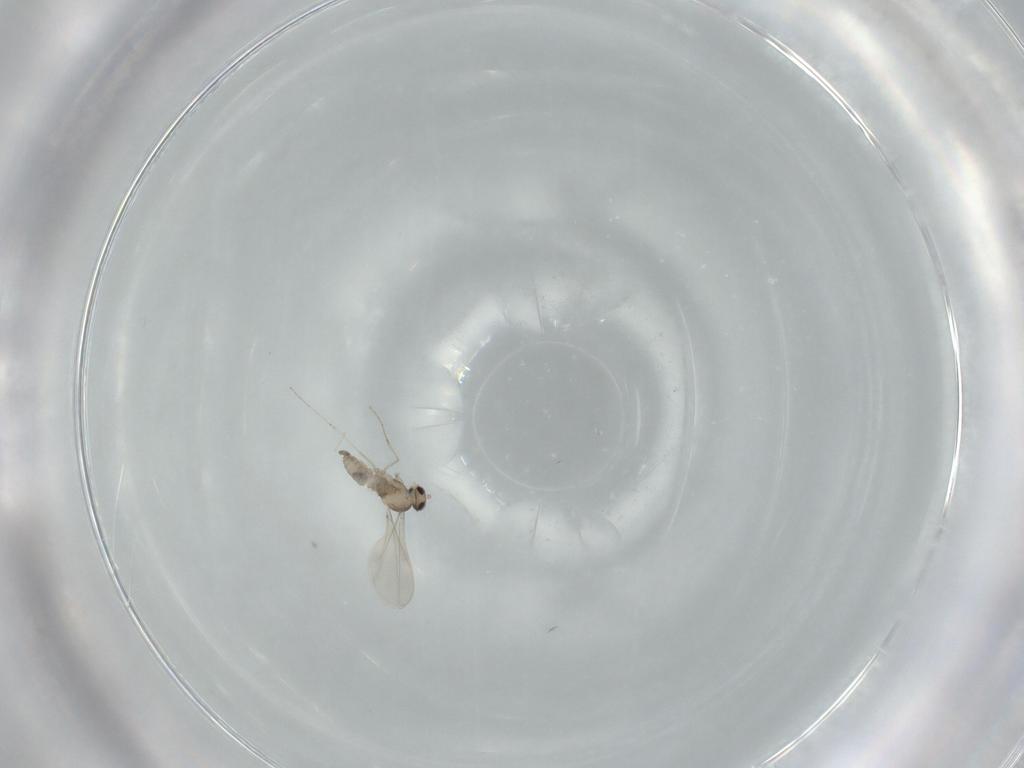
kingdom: Animalia
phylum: Arthropoda
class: Insecta
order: Diptera
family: Cecidomyiidae
